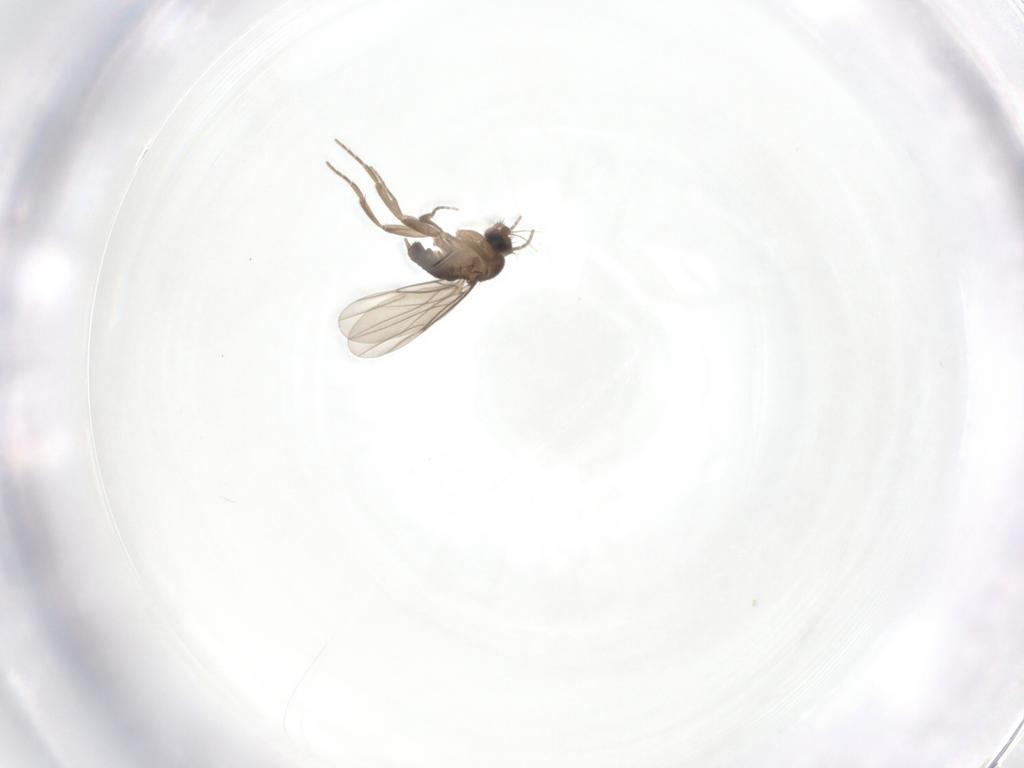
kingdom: Animalia
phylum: Arthropoda
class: Insecta
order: Diptera
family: Phoridae
